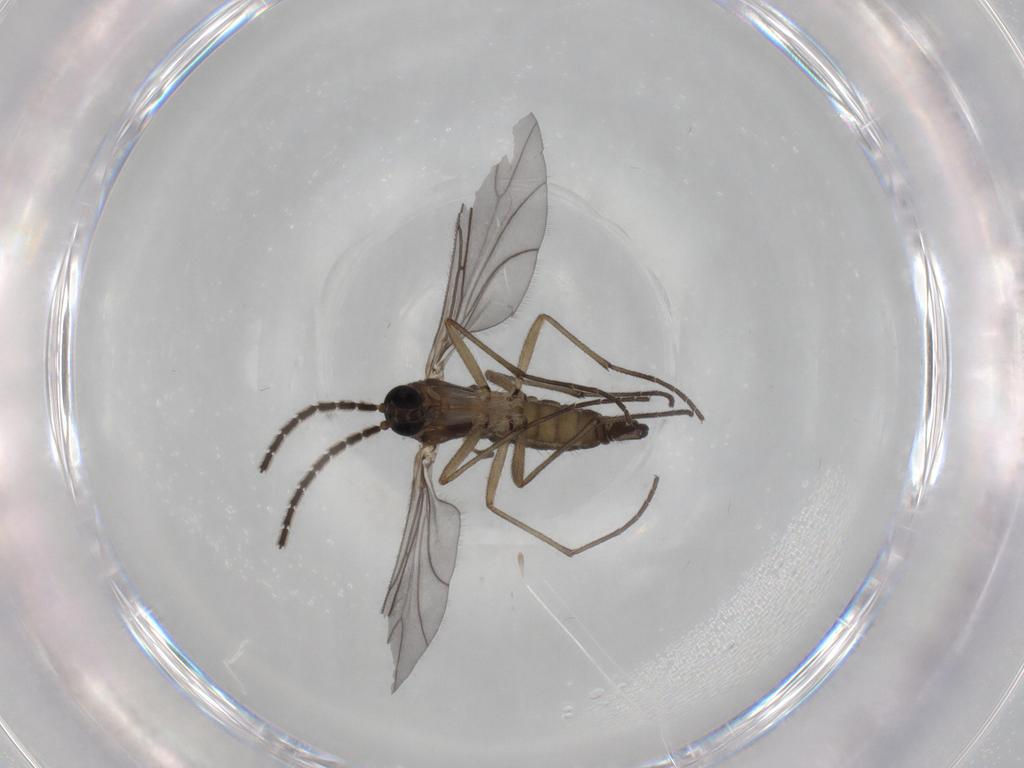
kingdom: Animalia
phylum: Arthropoda
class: Insecta
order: Diptera
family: Sciaridae
